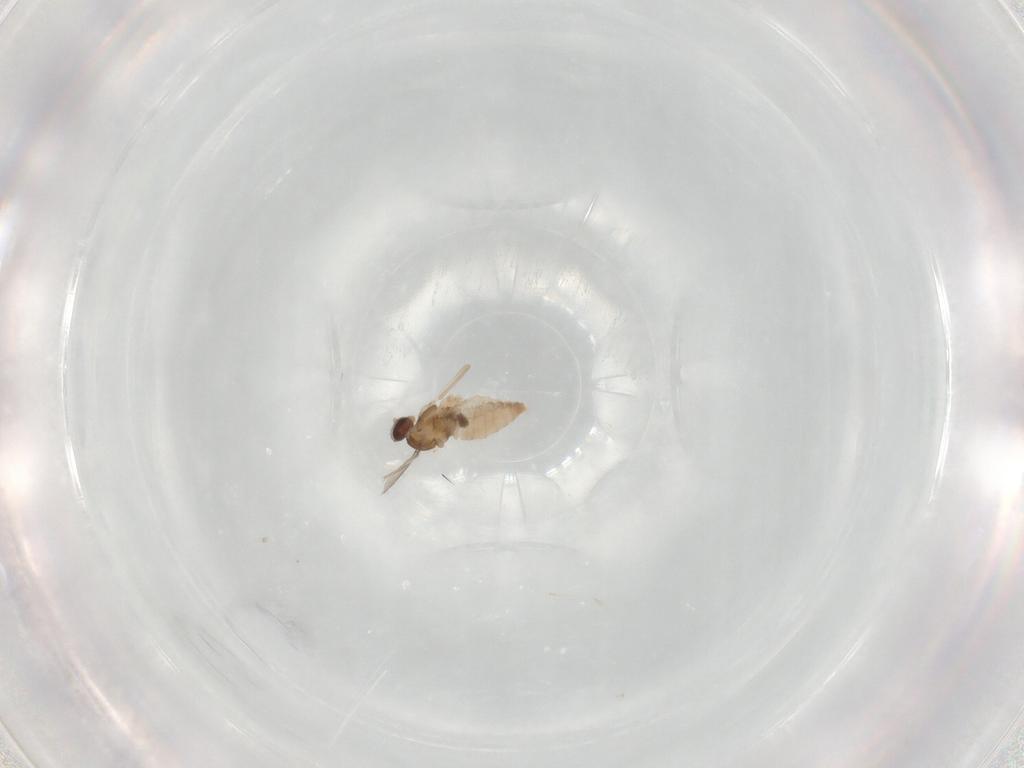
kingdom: Animalia
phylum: Arthropoda
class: Insecta
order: Diptera
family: Cecidomyiidae
